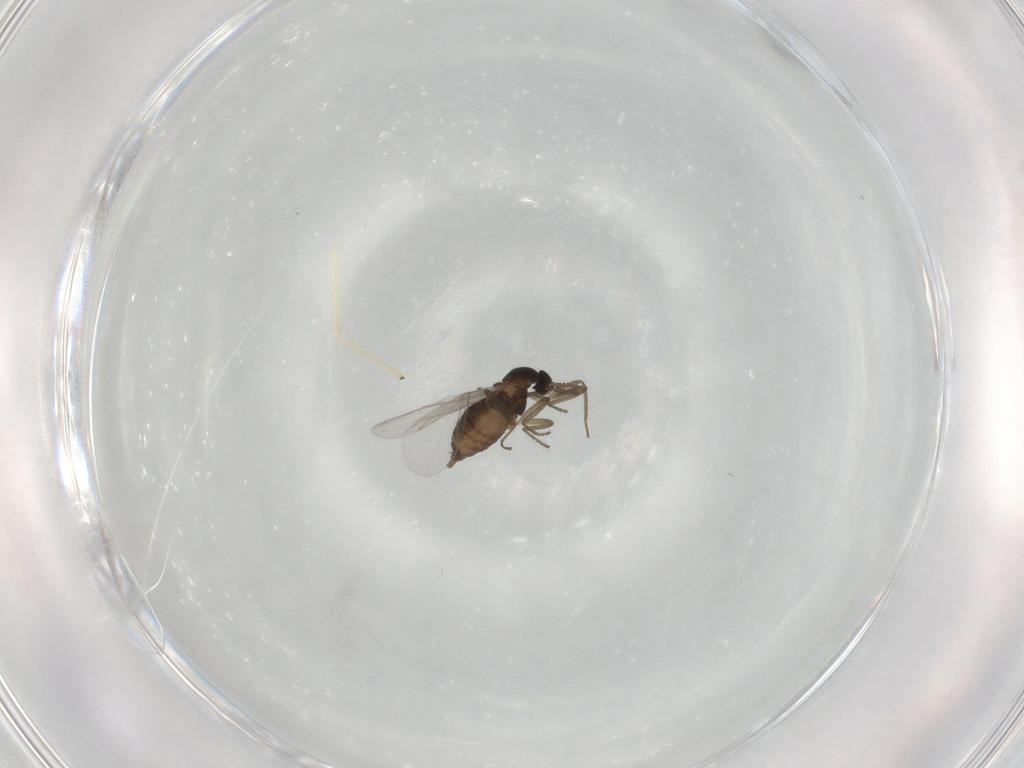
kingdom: Animalia
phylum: Arthropoda
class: Insecta
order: Diptera
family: Cecidomyiidae
